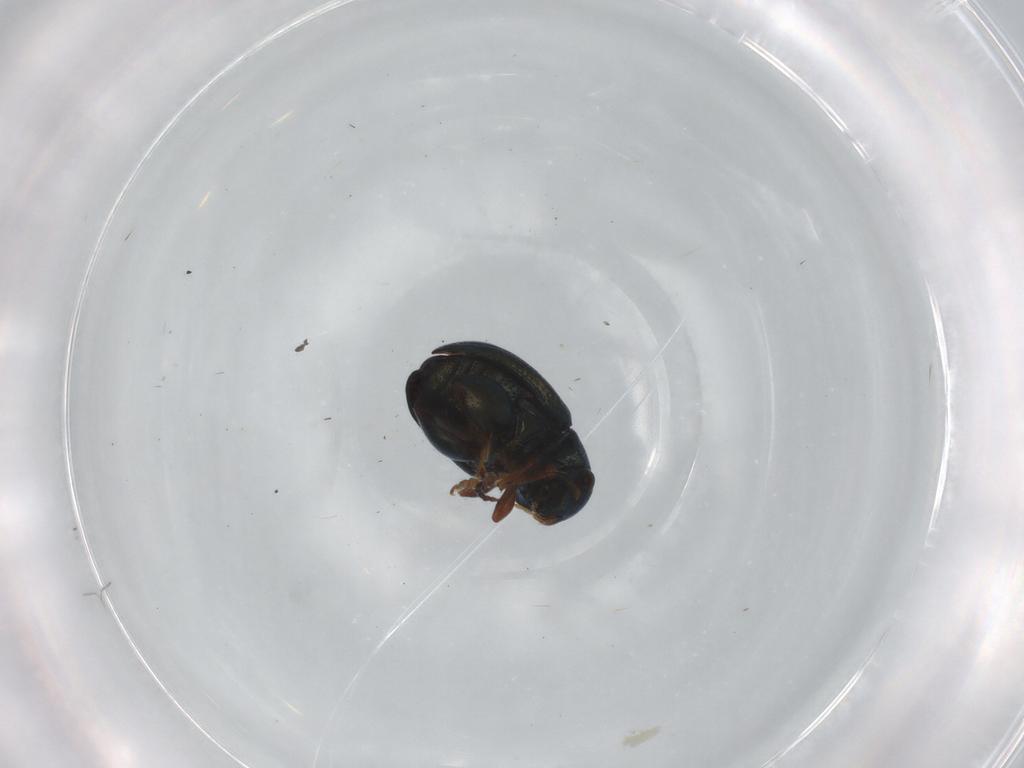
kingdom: Animalia
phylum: Arthropoda
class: Insecta
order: Coleoptera
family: Chrysomelidae
